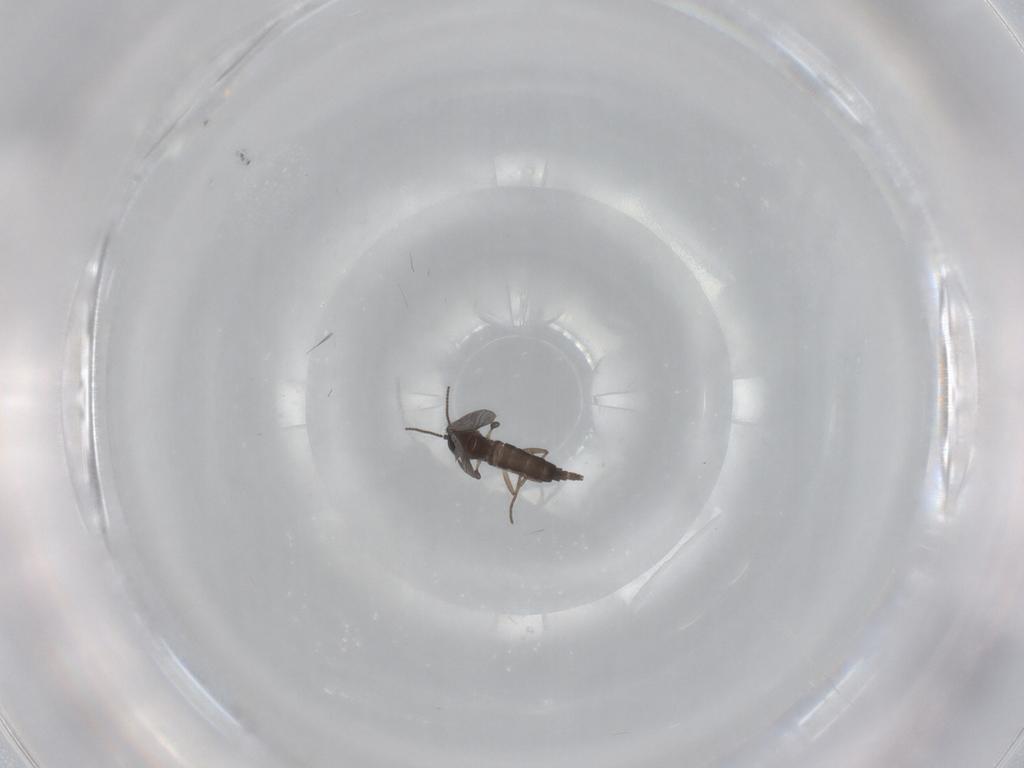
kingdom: Animalia
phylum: Arthropoda
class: Insecta
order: Diptera
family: Sciaridae
